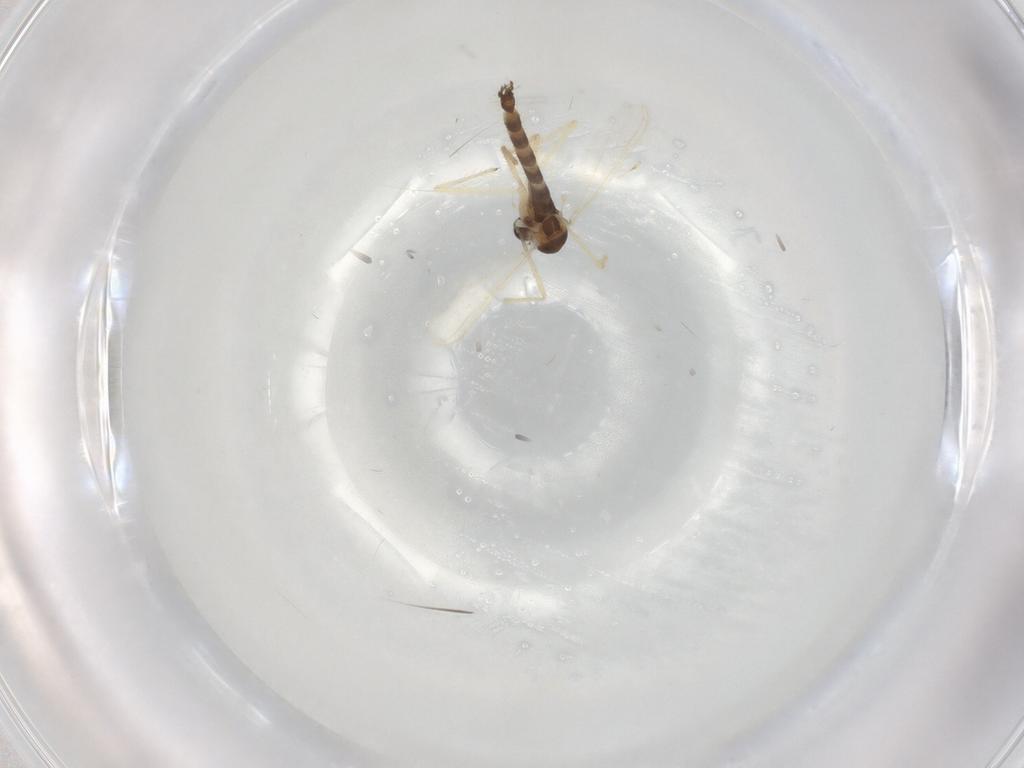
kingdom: Animalia
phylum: Arthropoda
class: Insecta
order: Diptera
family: Chironomidae
